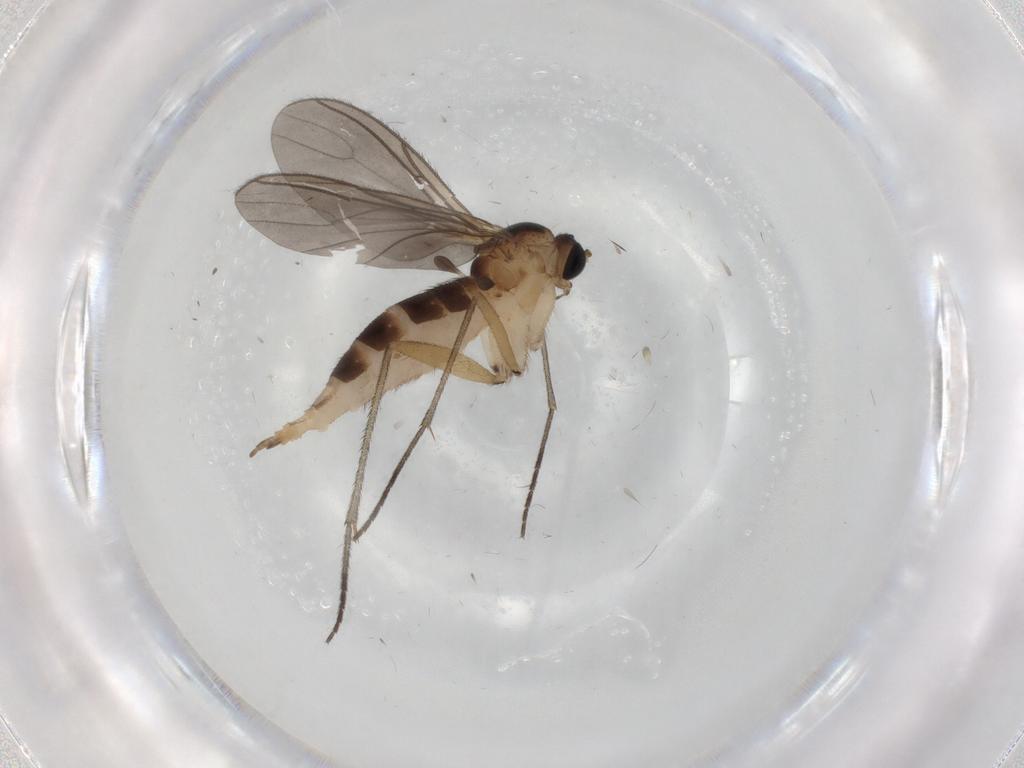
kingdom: Animalia
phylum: Arthropoda
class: Insecta
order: Diptera
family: Sciaridae
